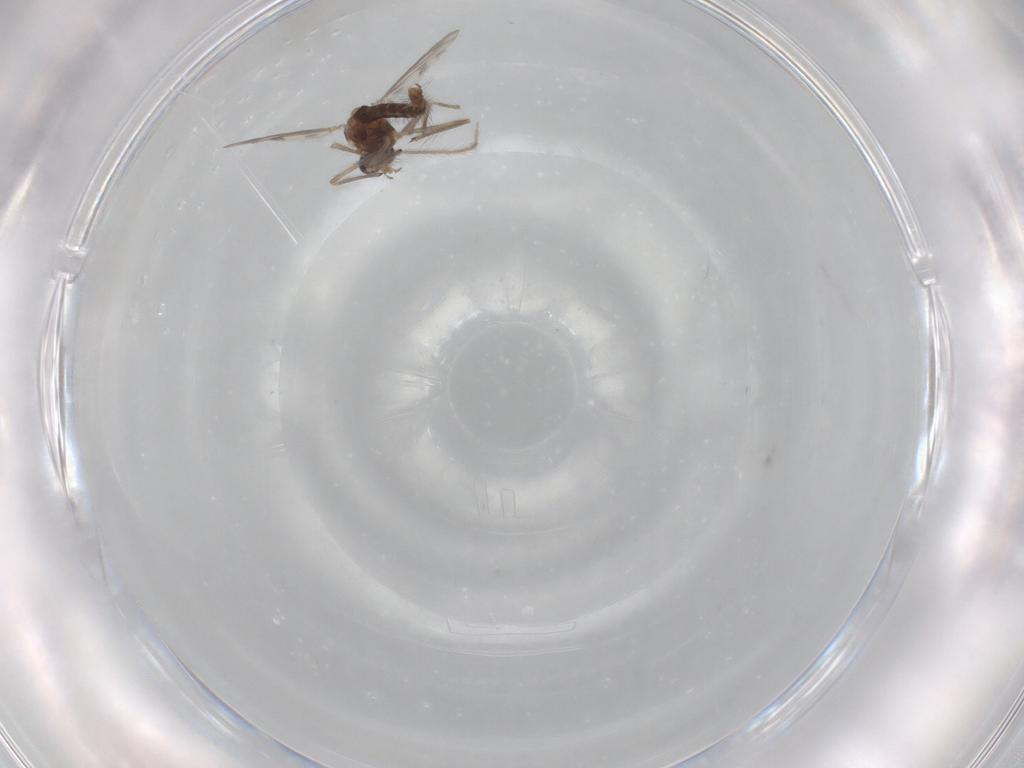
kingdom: Animalia
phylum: Arthropoda
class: Insecta
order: Diptera
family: Chironomidae
